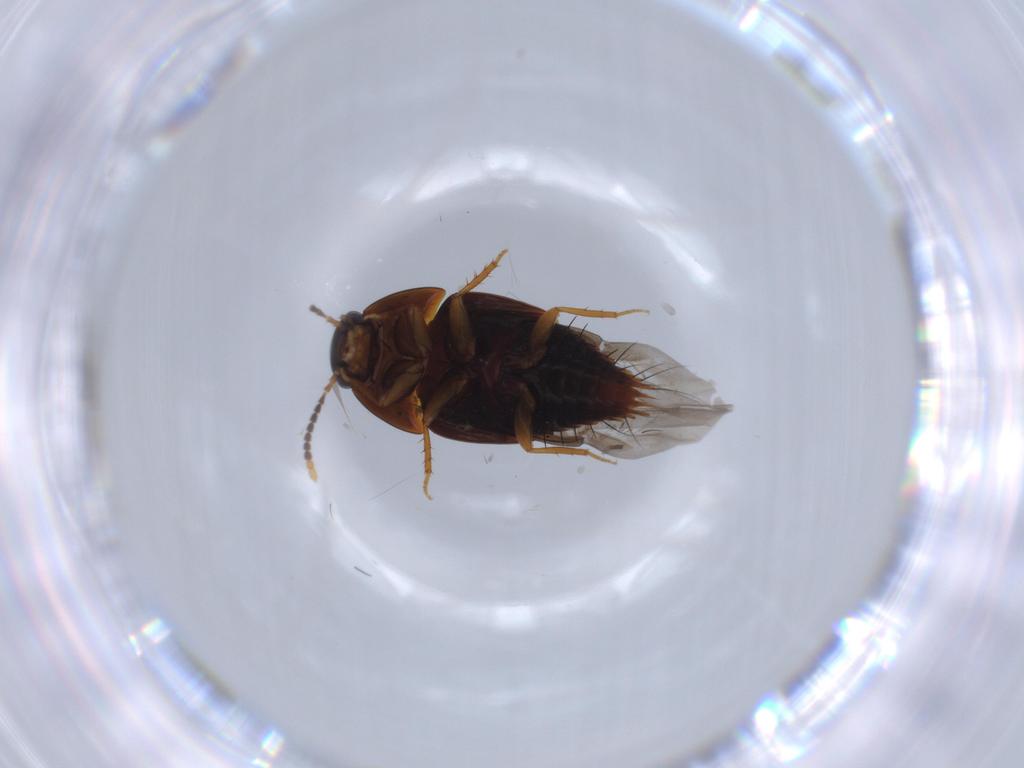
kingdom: Animalia
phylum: Arthropoda
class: Insecta
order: Coleoptera
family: Staphylinidae
